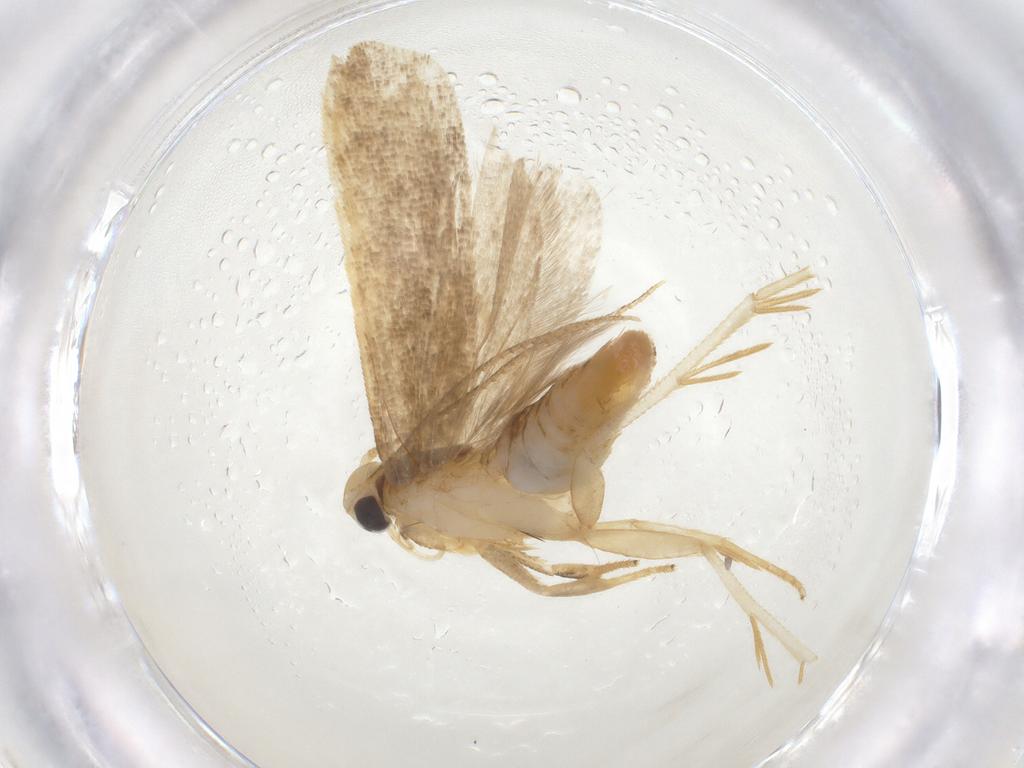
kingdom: Animalia
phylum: Arthropoda
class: Insecta
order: Lepidoptera
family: Gelechiidae
